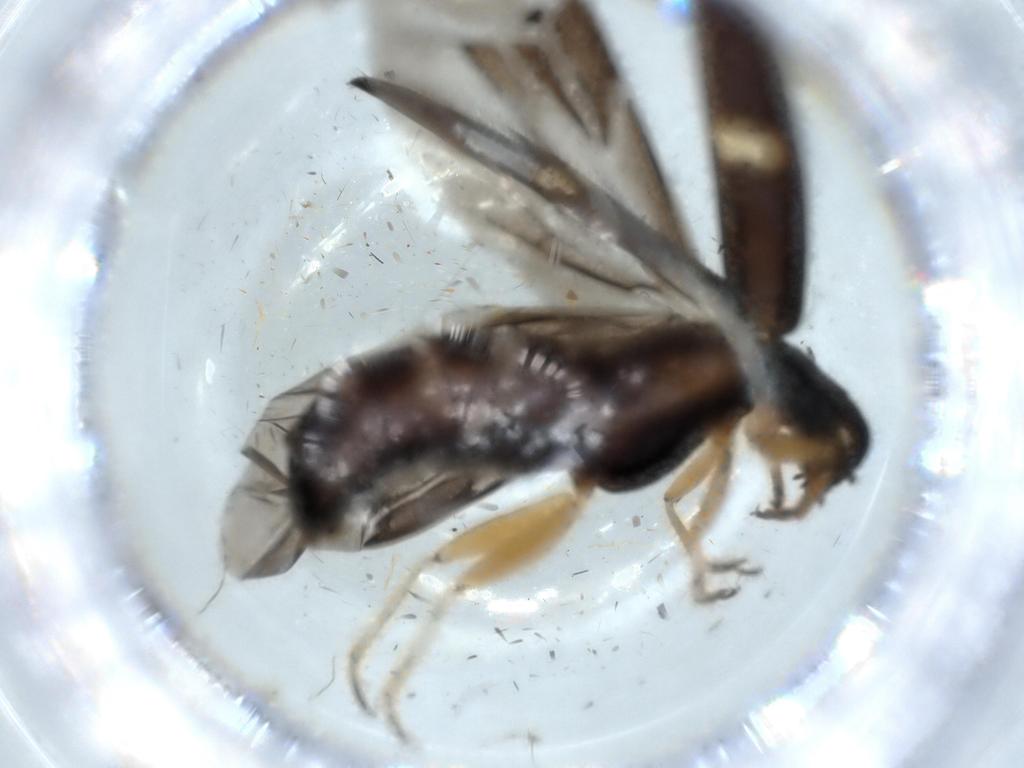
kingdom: Animalia
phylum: Arthropoda
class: Insecta
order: Coleoptera
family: Cleridae
